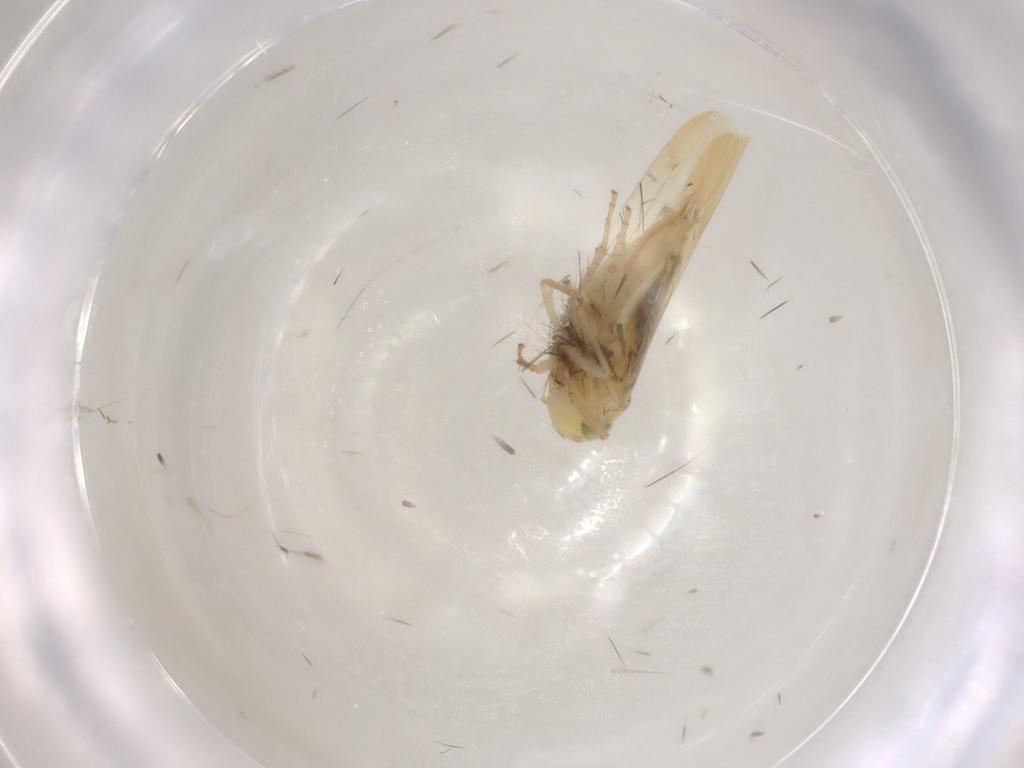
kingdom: Animalia
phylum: Arthropoda
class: Insecta
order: Hemiptera
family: Cicadellidae
